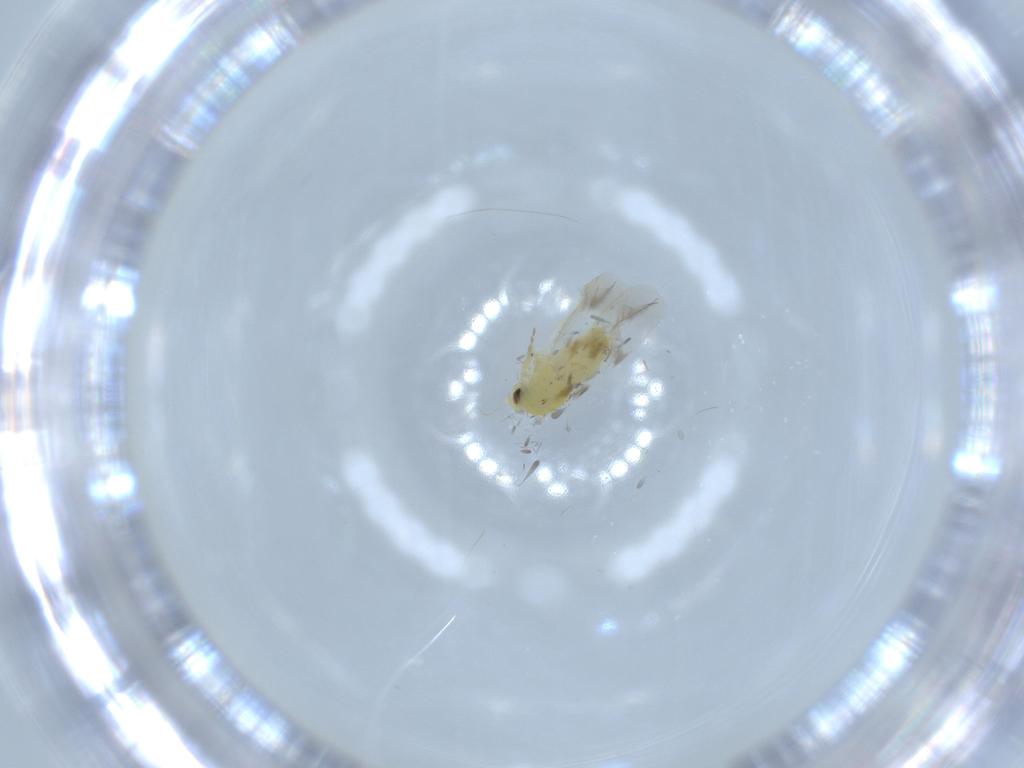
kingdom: Animalia
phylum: Arthropoda
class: Insecta
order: Hemiptera
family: Aleyrodidae
